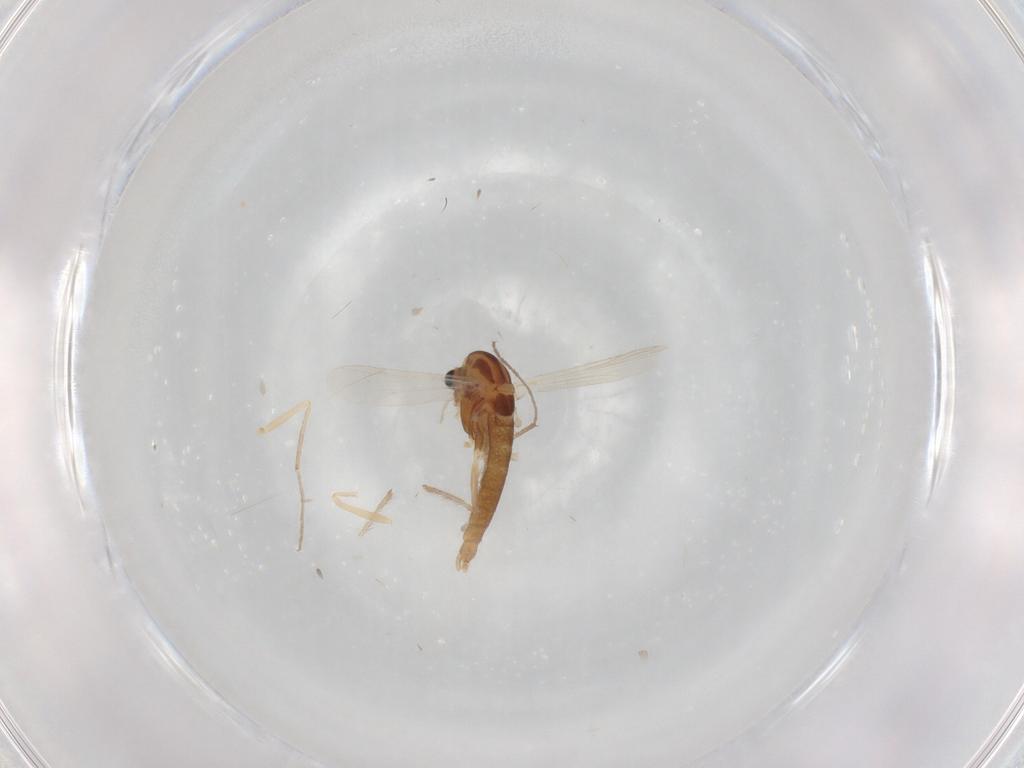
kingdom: Animalia
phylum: Arthropoda
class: Insecta
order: Diptera
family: Chironomidae
